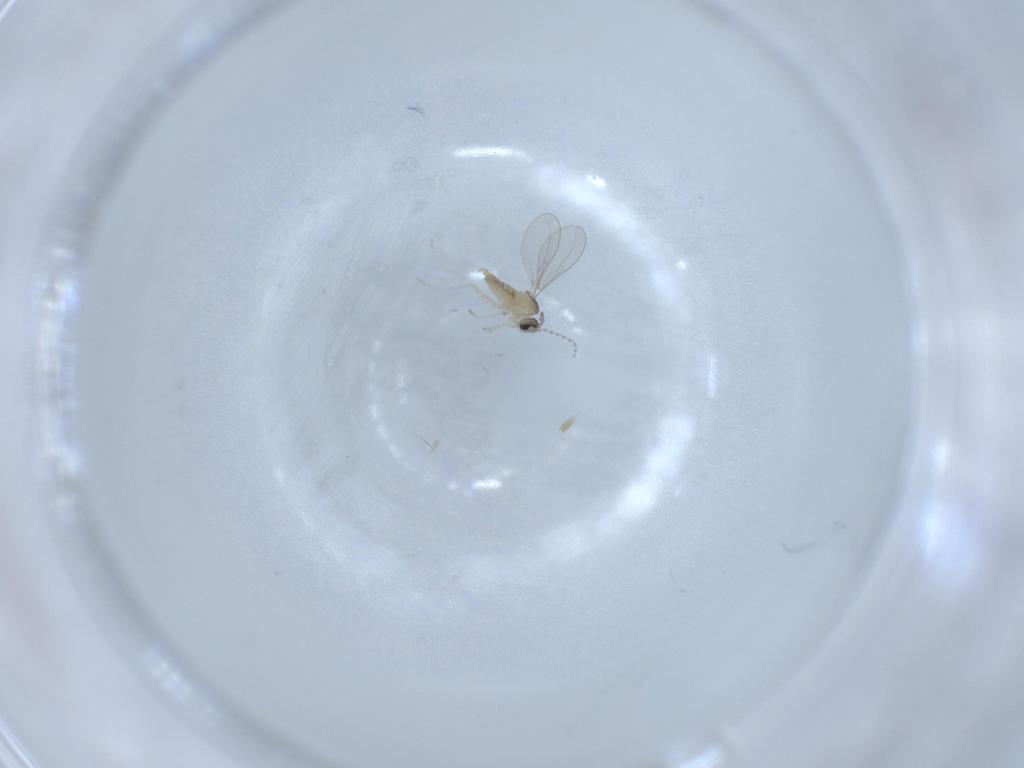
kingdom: Animalia
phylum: Arthropoda
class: Insecta
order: Diptera
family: Cecidomyiidae
